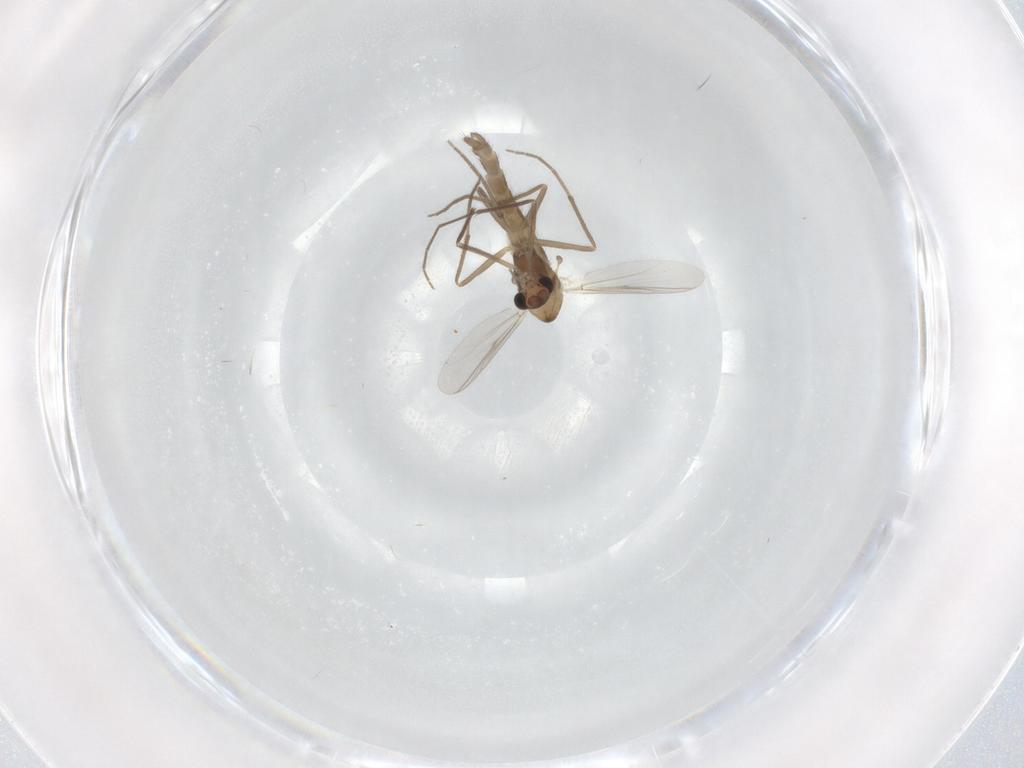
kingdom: Animalia
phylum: Arthropoda
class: Insecta
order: Diptera
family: Chironomidae
